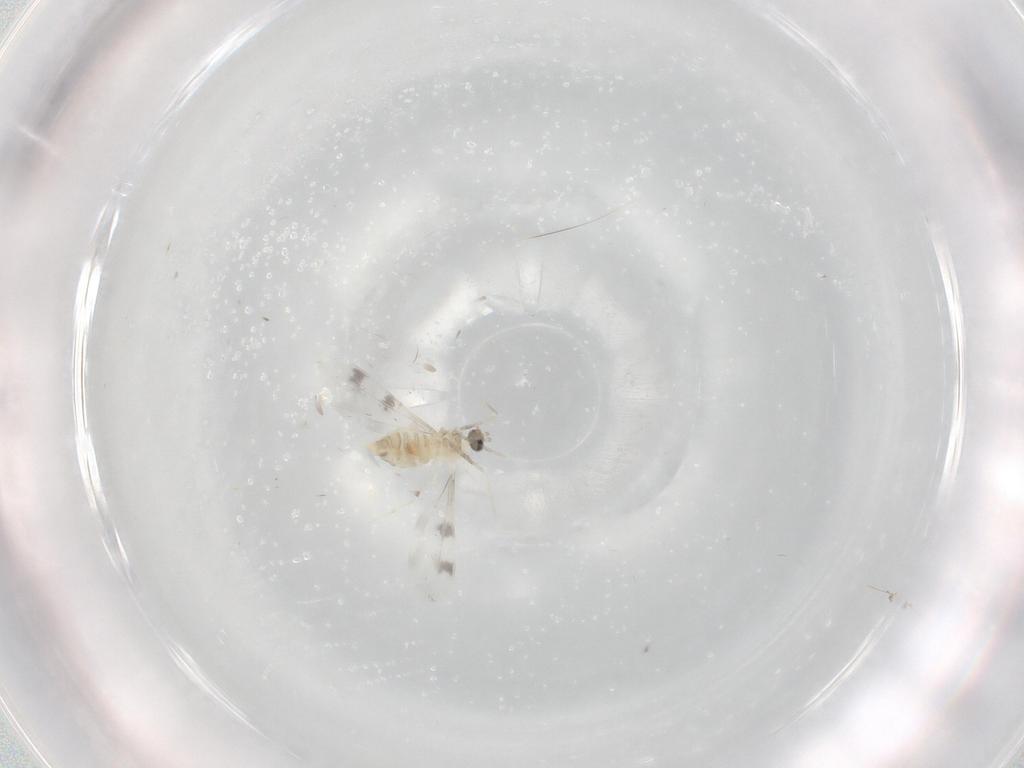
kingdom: Animalia
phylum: Arthropoda
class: Insecta
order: Diptera
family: Cecidomyiidae
